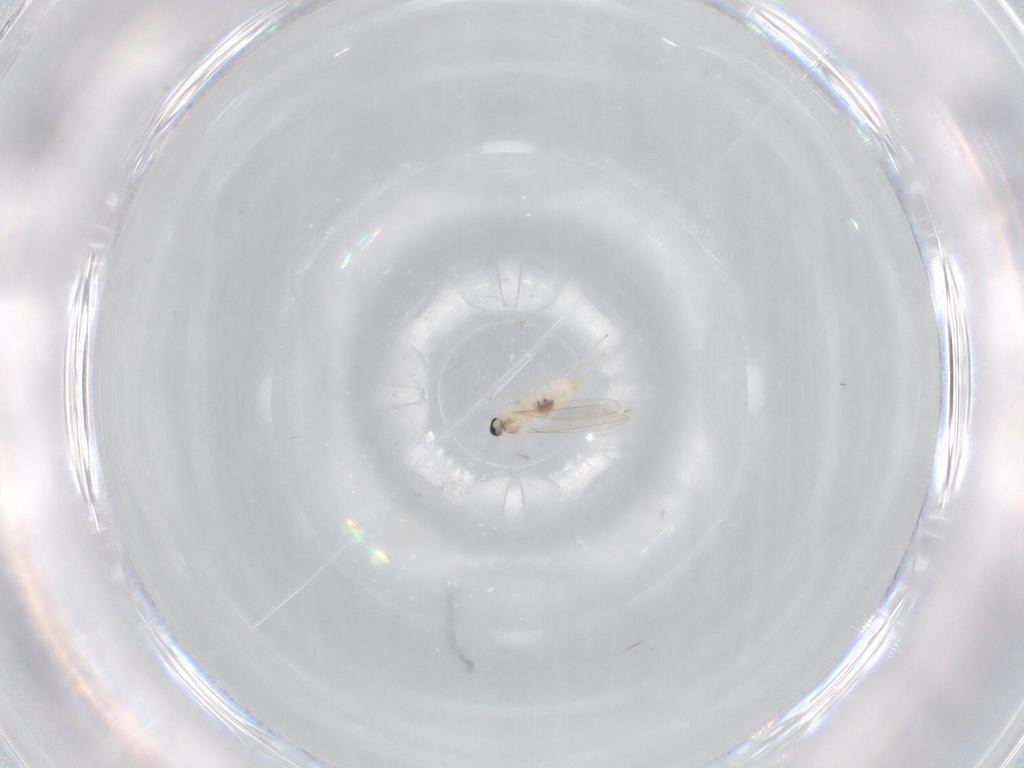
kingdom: Animalia
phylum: Arthropoda
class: Insecta
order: Diptera
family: Cecidomyiidae
